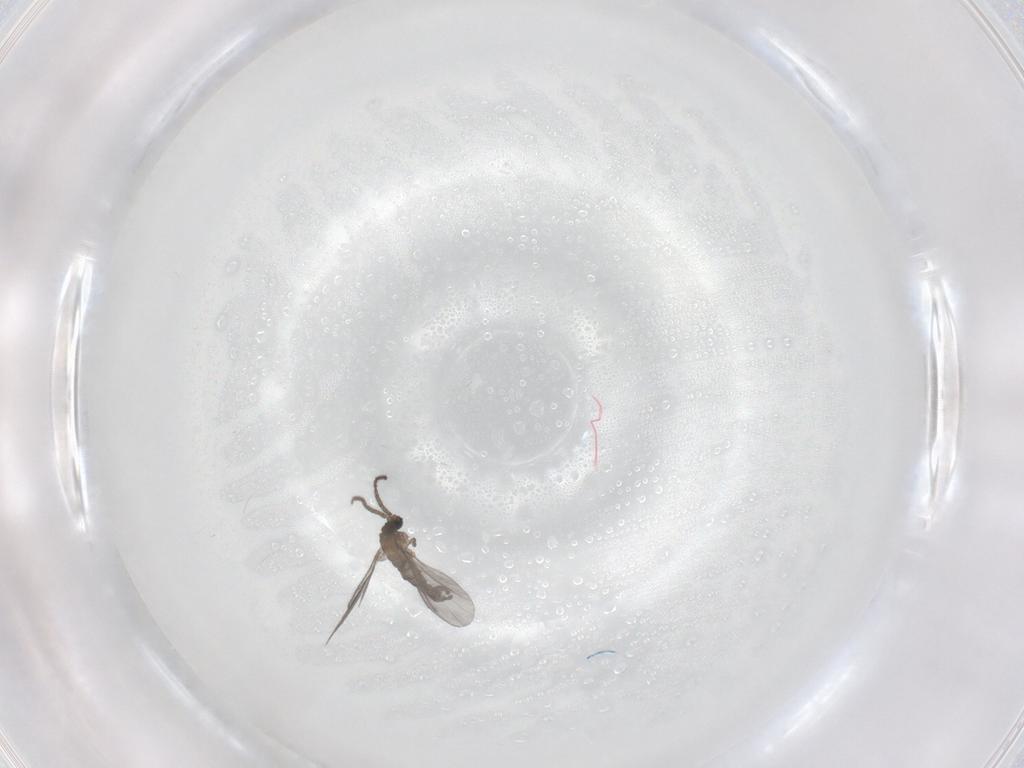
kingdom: Animalia
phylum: Arthropoda
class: Insecta
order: Diptera
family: Sciaridae
